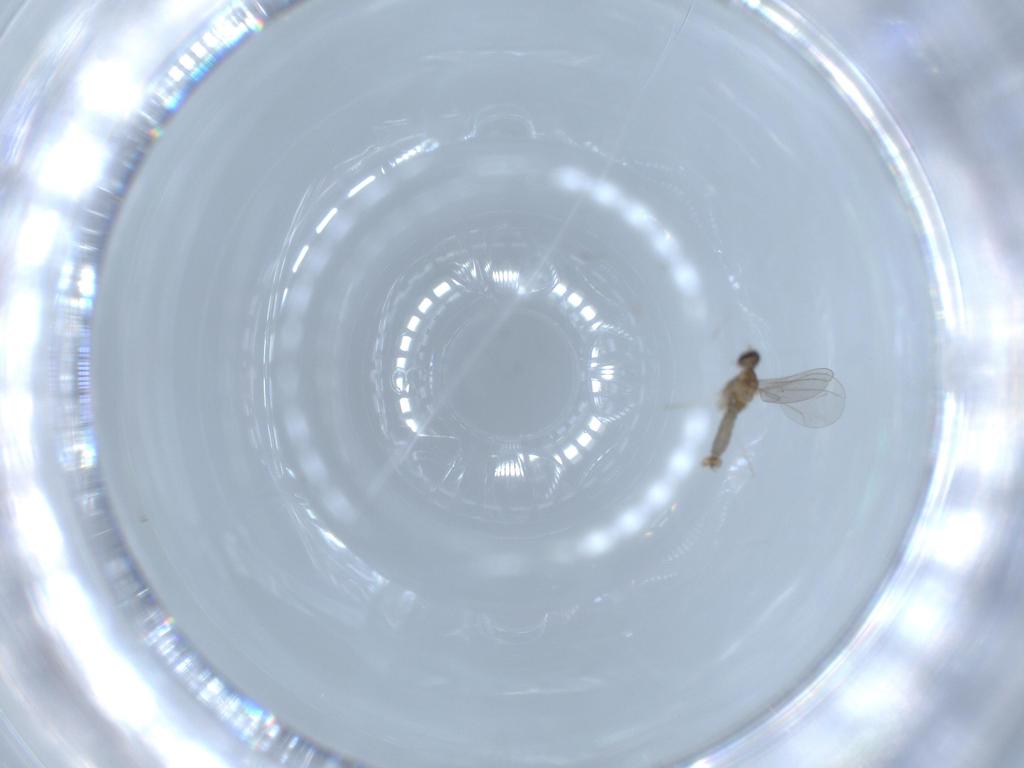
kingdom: Animalia
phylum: Arthropoda
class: Insecta
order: Diptera
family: Cecidomyiidae
